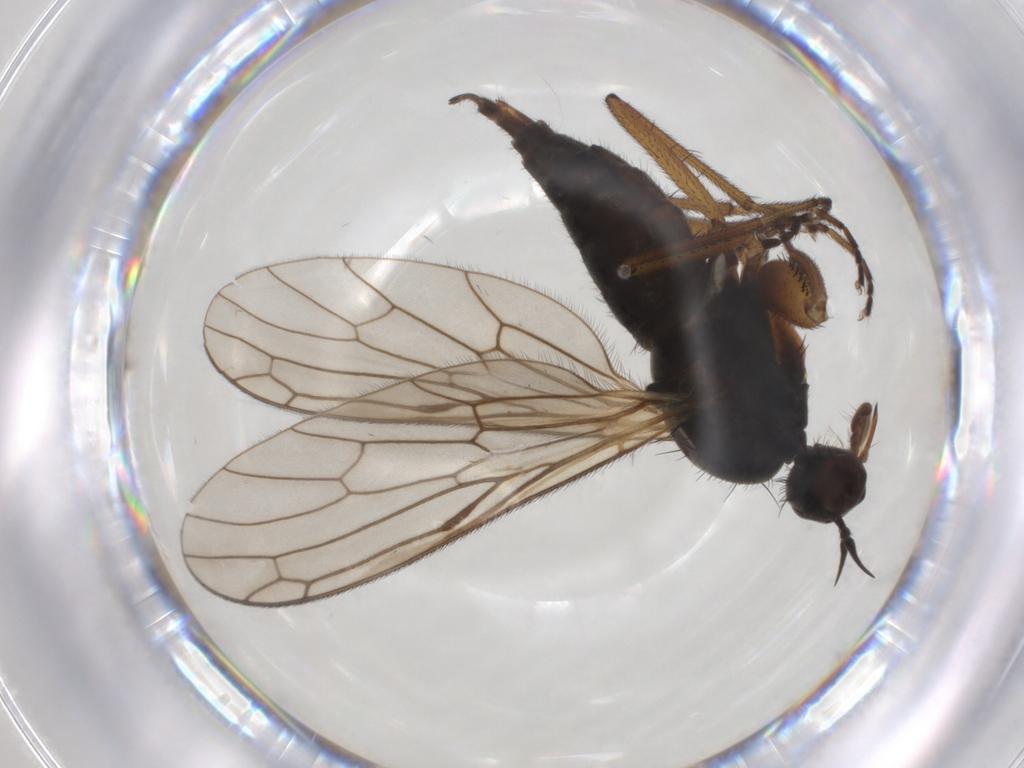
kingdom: Animalia
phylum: Arthropoda
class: Insecta
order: Diptera
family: Empididae
